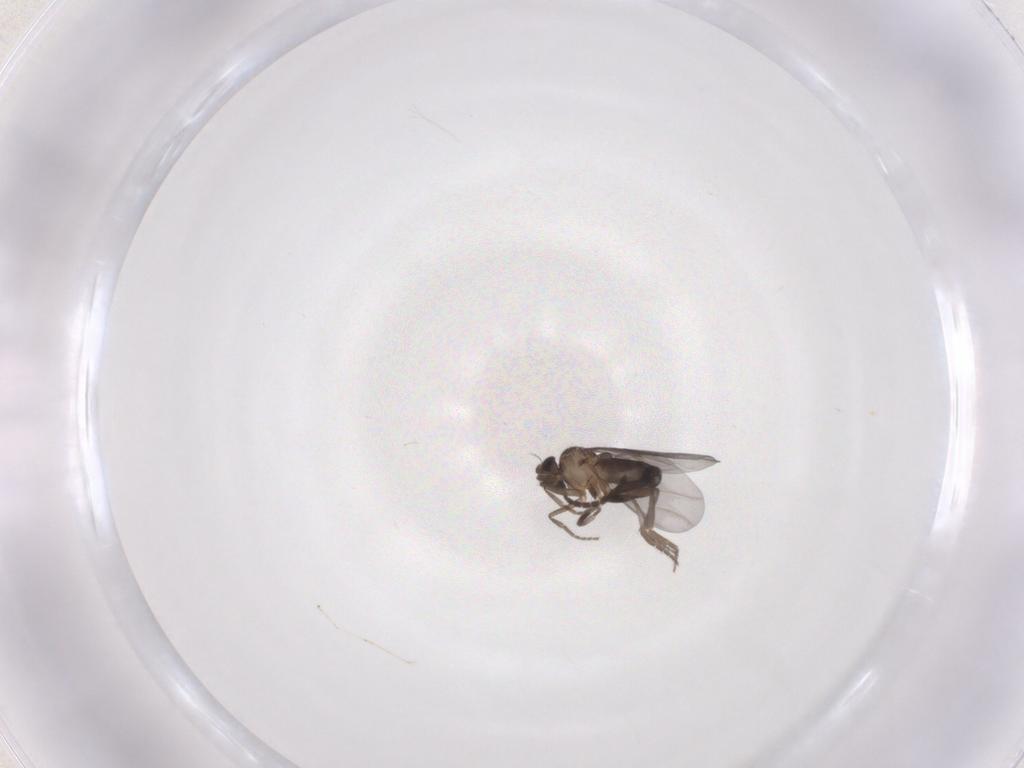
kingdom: Animalia
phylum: Arthropoda
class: Insecta
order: Diptera
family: Phoridae
